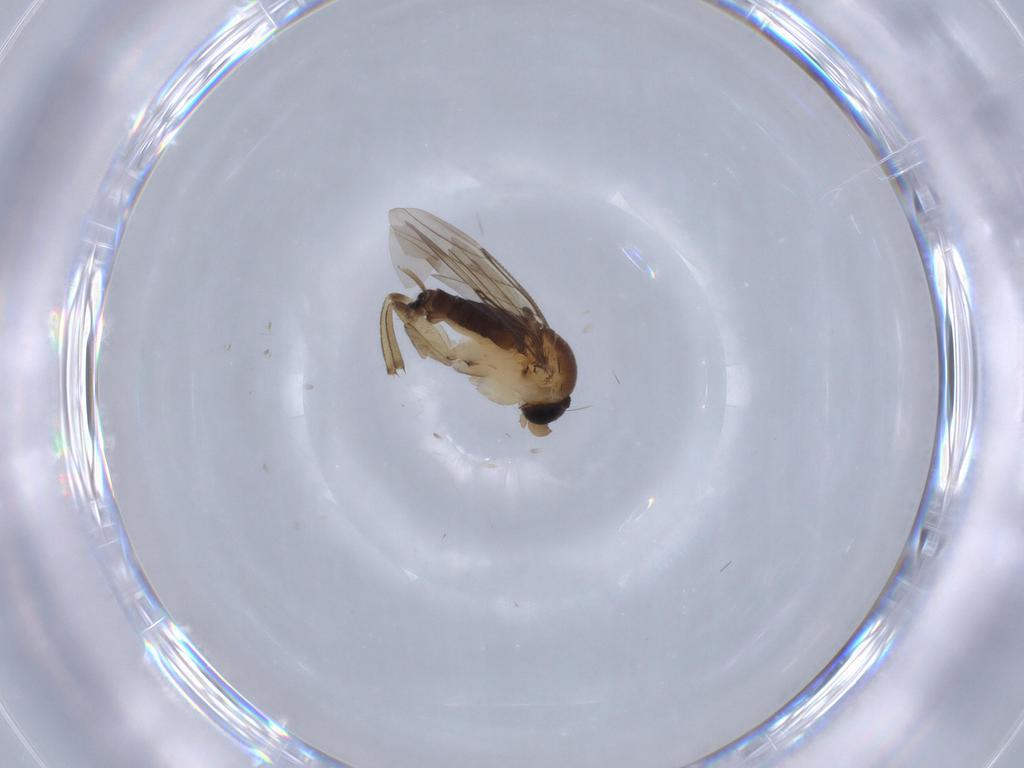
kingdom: Animalia
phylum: Arthropoda
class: Insecta
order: Diptera
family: Phoridae
